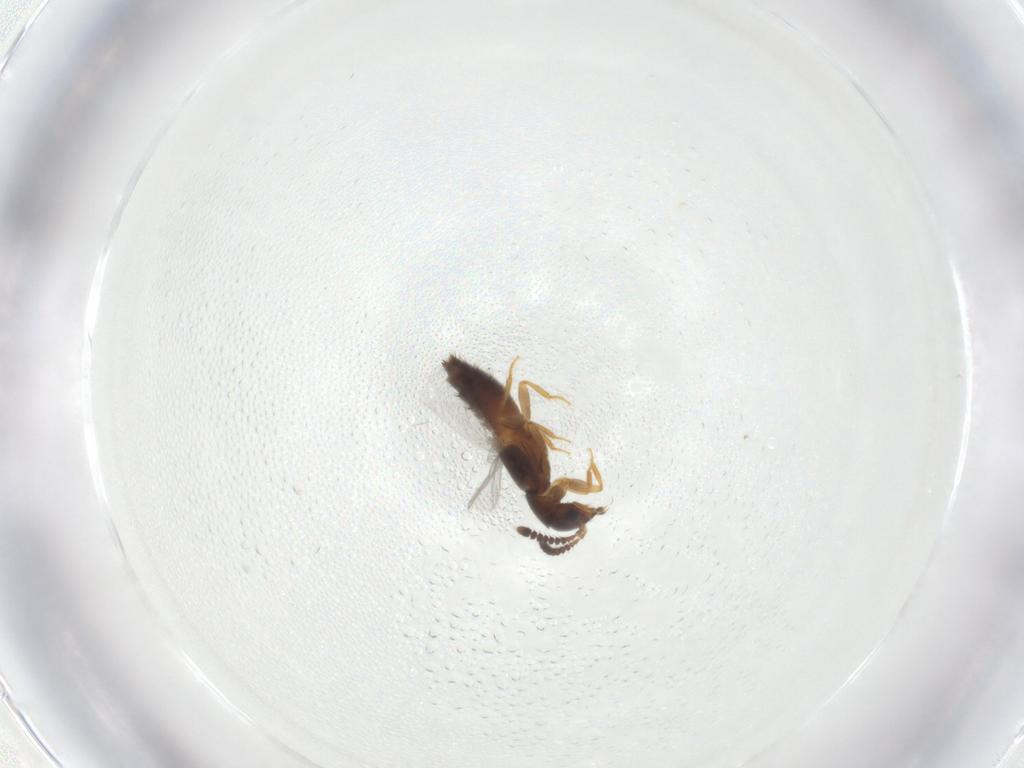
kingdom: Animalia
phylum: Arthropoda
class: Insecta
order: Coleoptera
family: Staphylinidae
